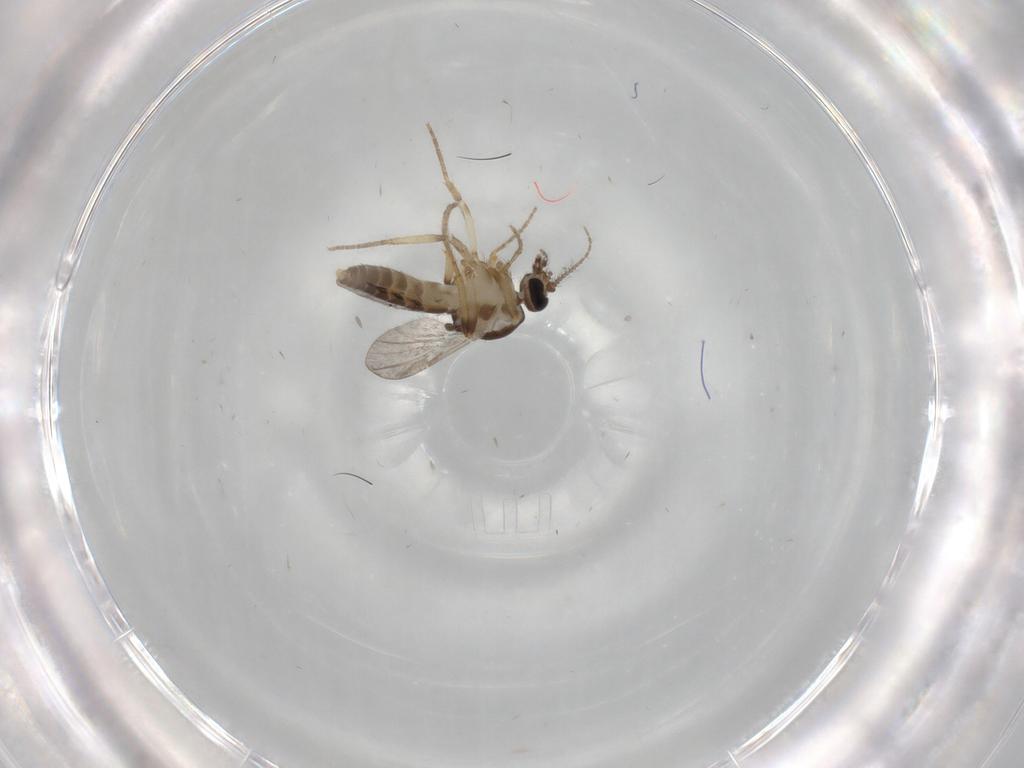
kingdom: Animalia
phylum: Arthropoda
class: Insecta
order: Diptera
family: Ceratopogonidae
